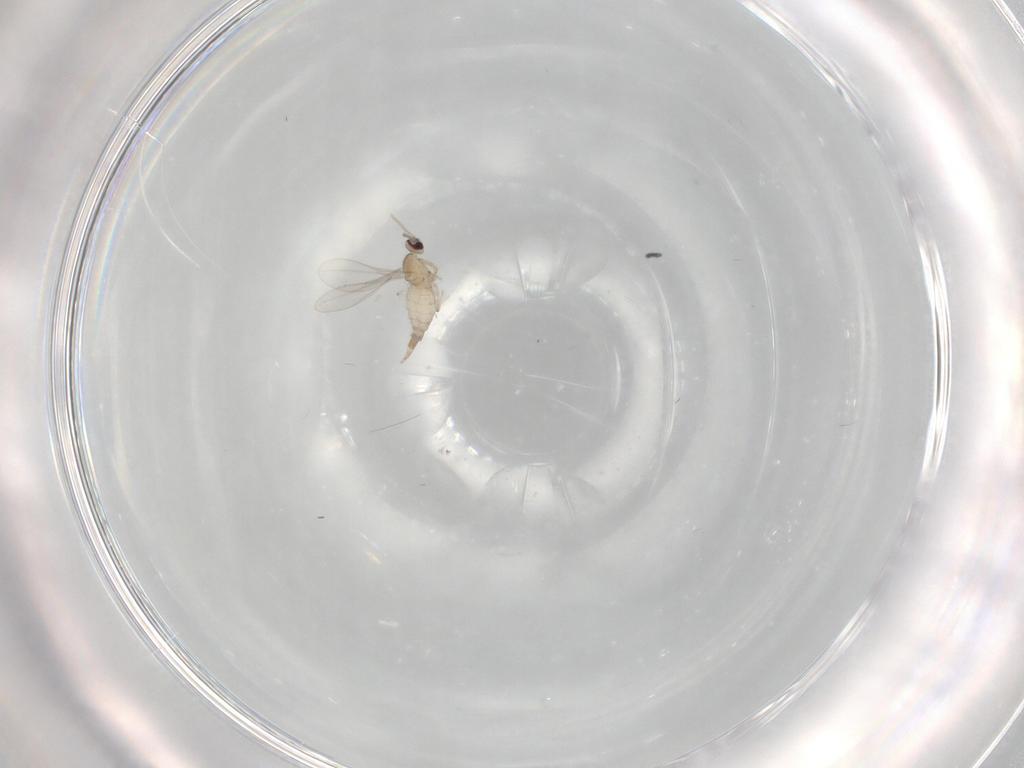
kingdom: Animalia
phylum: Arthropoda
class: Insecta
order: Diptera
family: Cecidomyiidae
